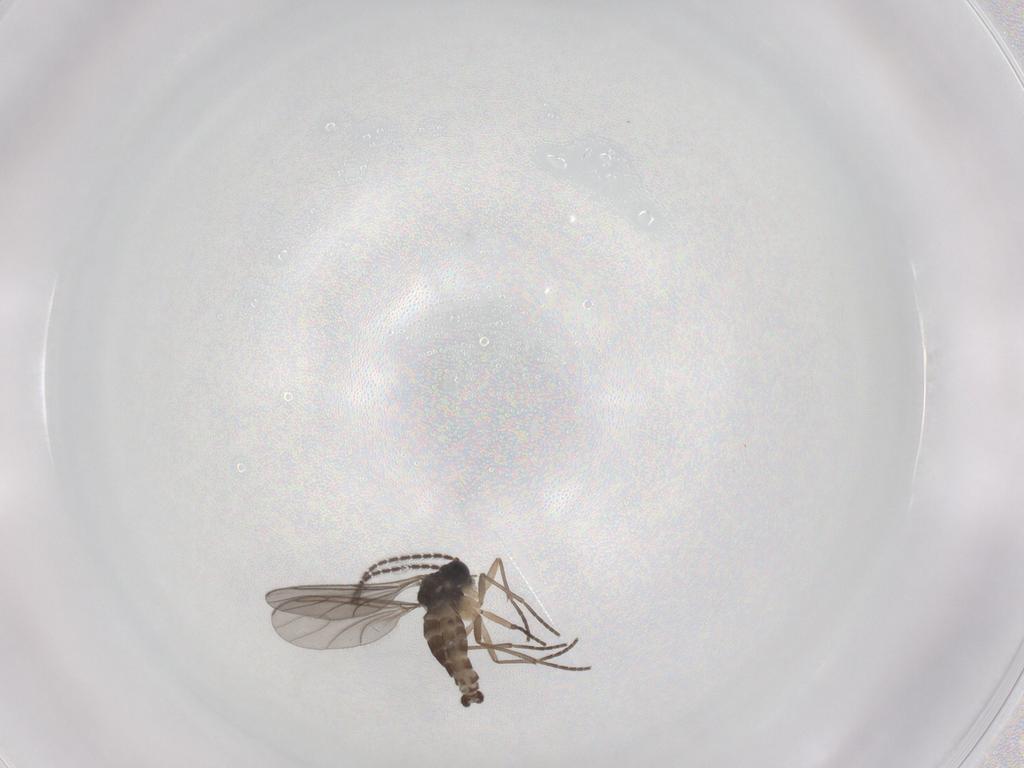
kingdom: Animalia
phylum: Arthropoda
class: Insecta
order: Diptera
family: Sciaridae
